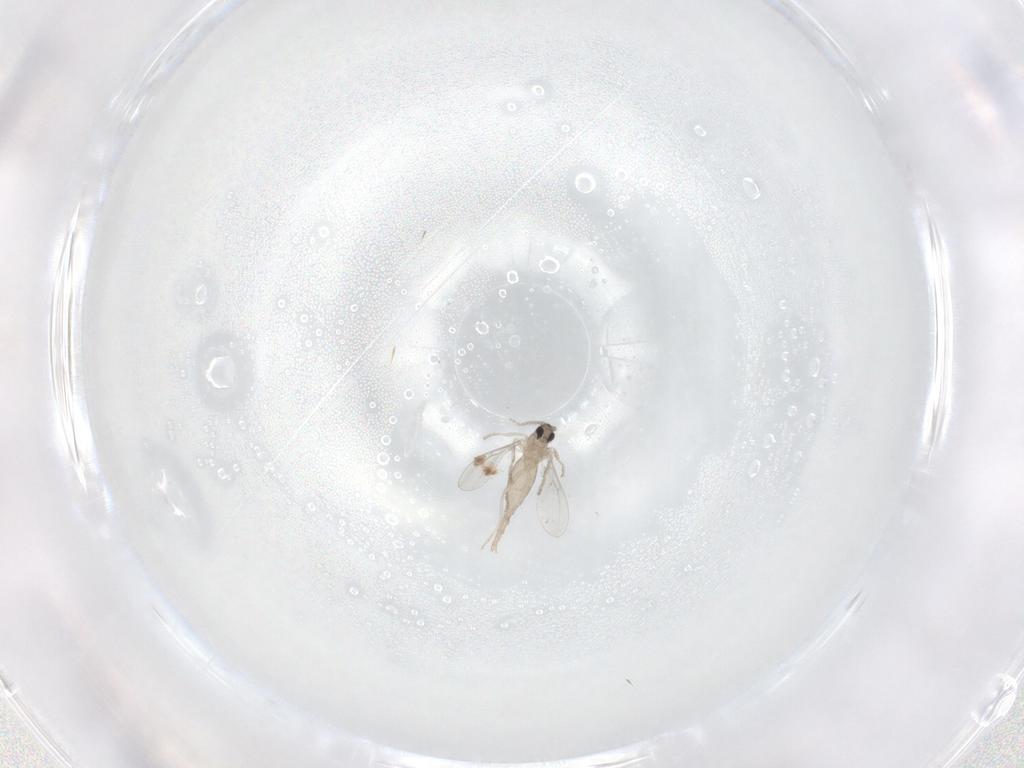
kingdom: Animalia
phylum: Arthropoda
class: Insecta
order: Diptera
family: Cecidomyiidae
